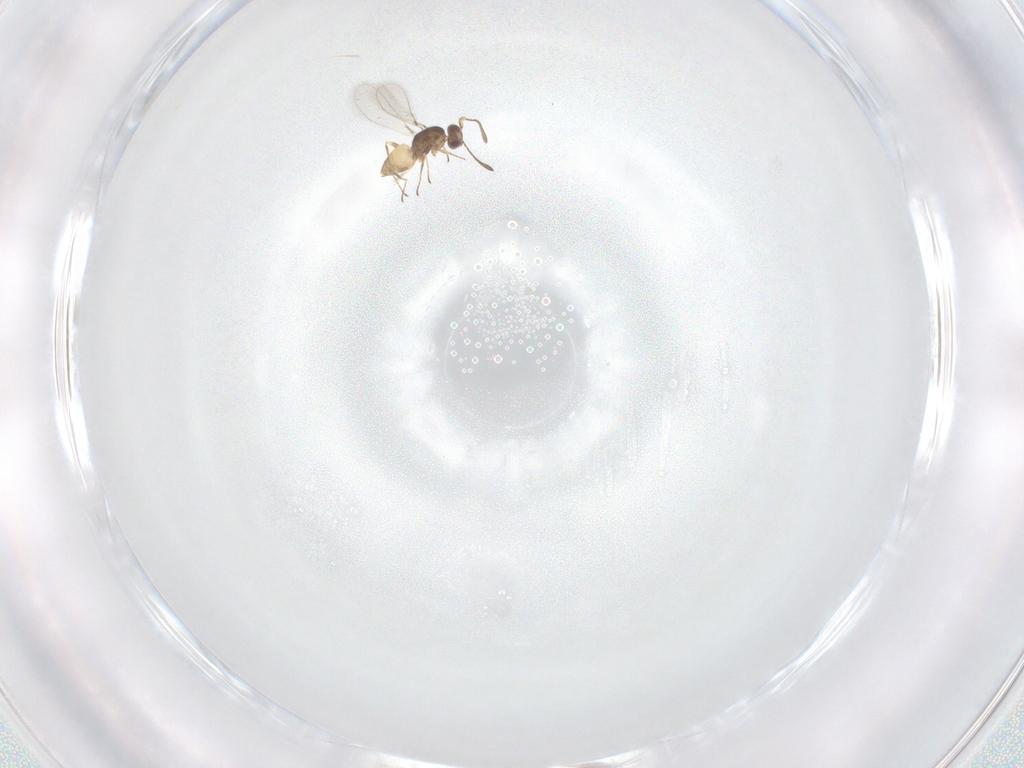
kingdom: Animalia
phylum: Arthropoda
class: Insecta
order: Hymenoptera
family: Mymaridae
